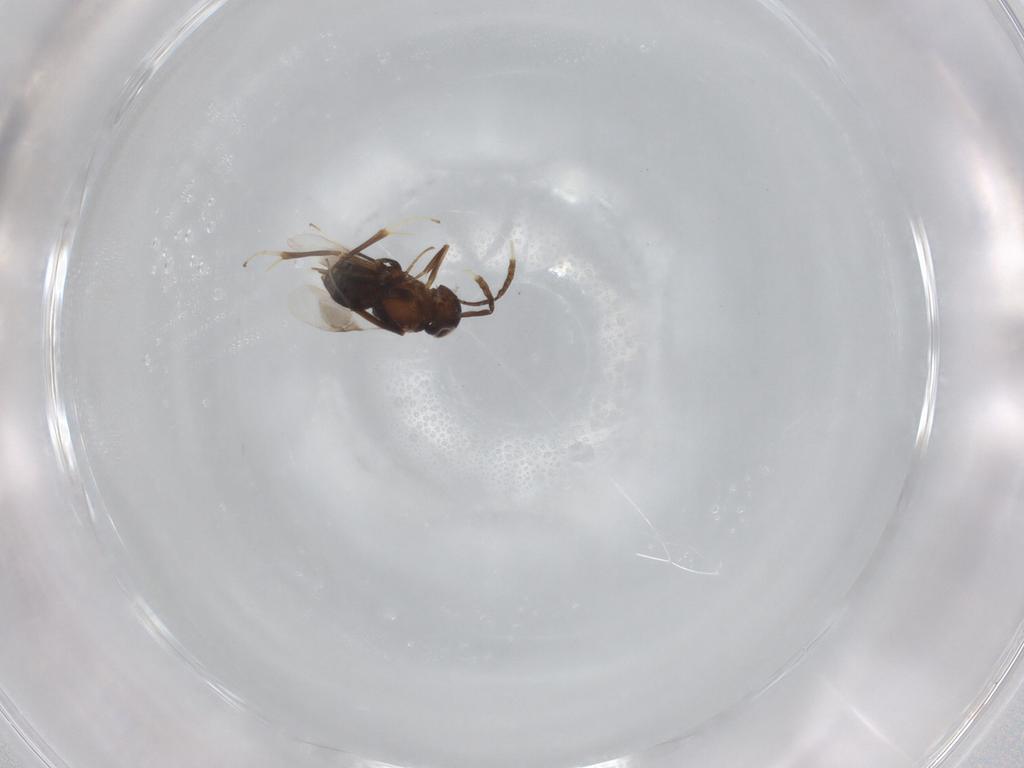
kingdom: Animalia
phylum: Arthropoda
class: Insecta
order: Hymenoptera
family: Encyrtidae
